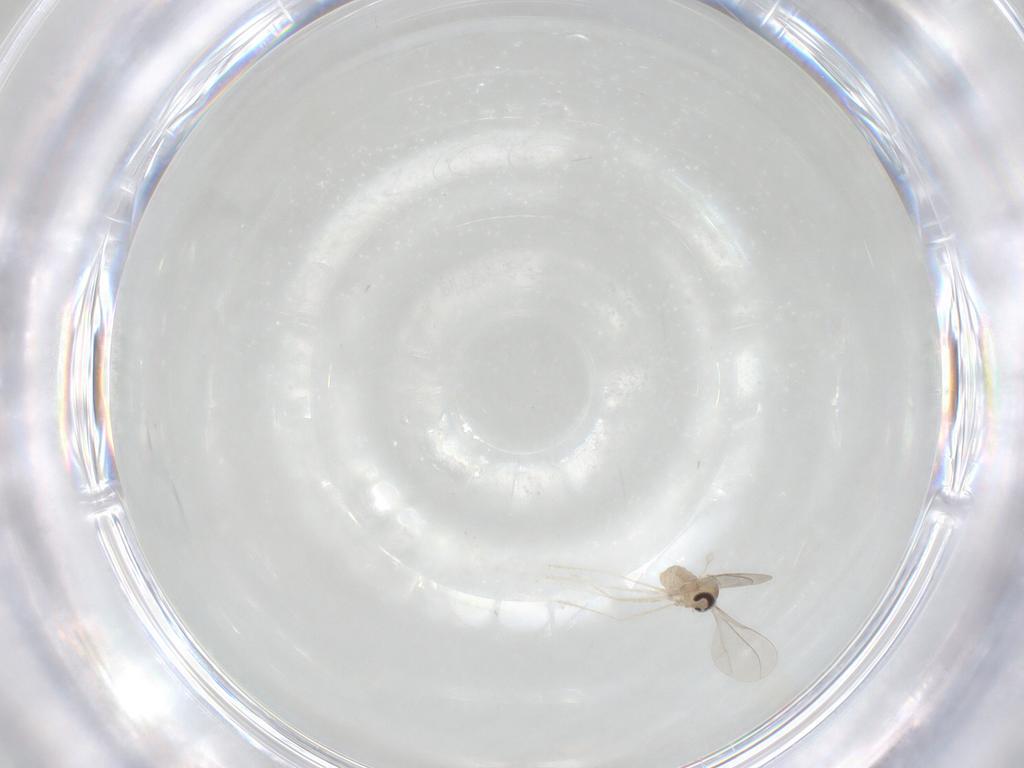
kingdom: Animalia
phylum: Arthropoda
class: Insecta
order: Diptera
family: Cecidomyiidae
